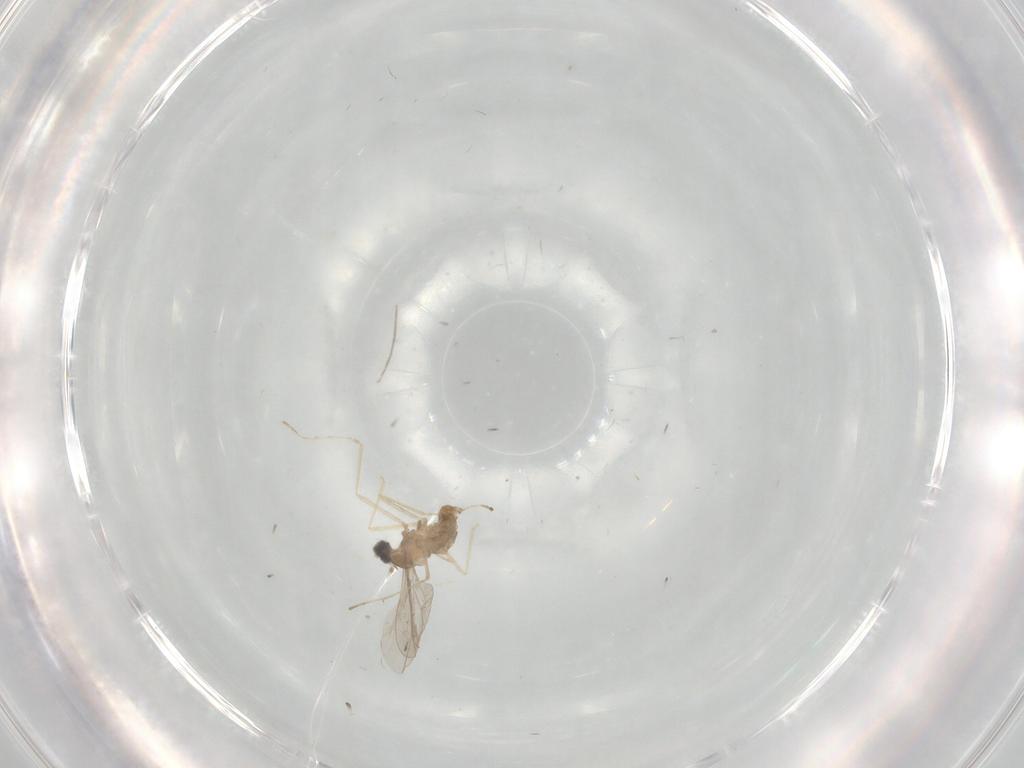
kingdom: Animalia
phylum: Arthropoda
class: Insecta
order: Diptera
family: Cecidomyiidae
